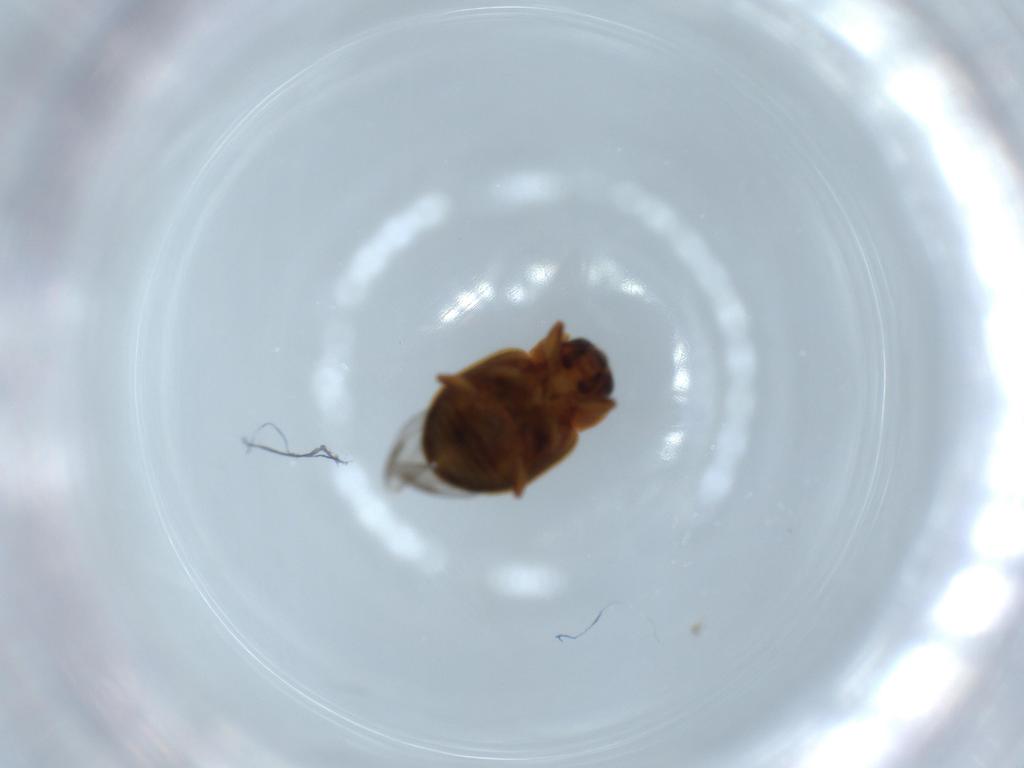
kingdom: Animalia
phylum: Arthropoda
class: Insecta
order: Coleoptera
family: Coccinellidae
